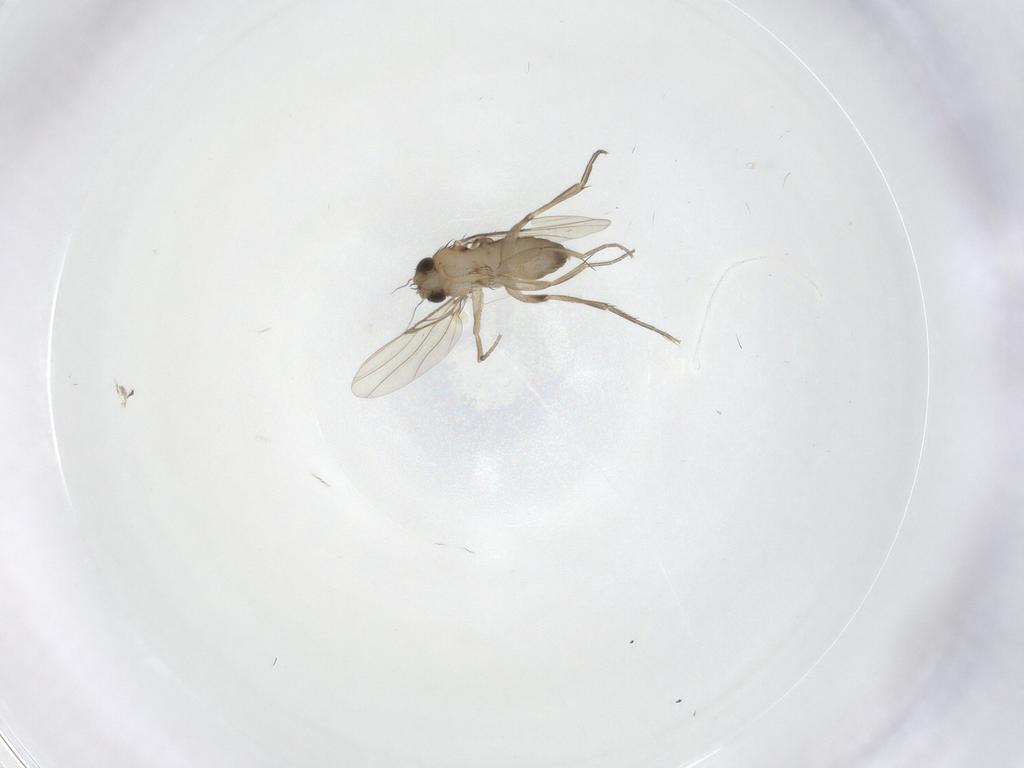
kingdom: Animalia
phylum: Arthropoda
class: Insecta
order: Diptera
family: Phoridae
